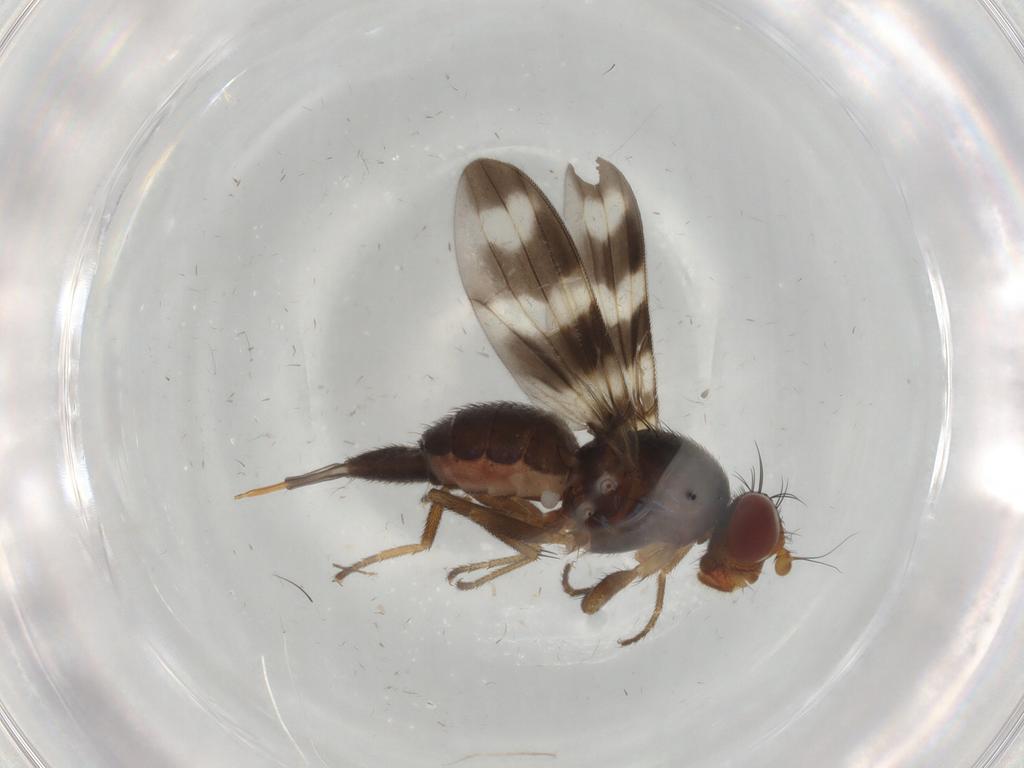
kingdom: Animalia
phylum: Arthropoda
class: Insecta
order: Diptera
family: Ulidiidae
